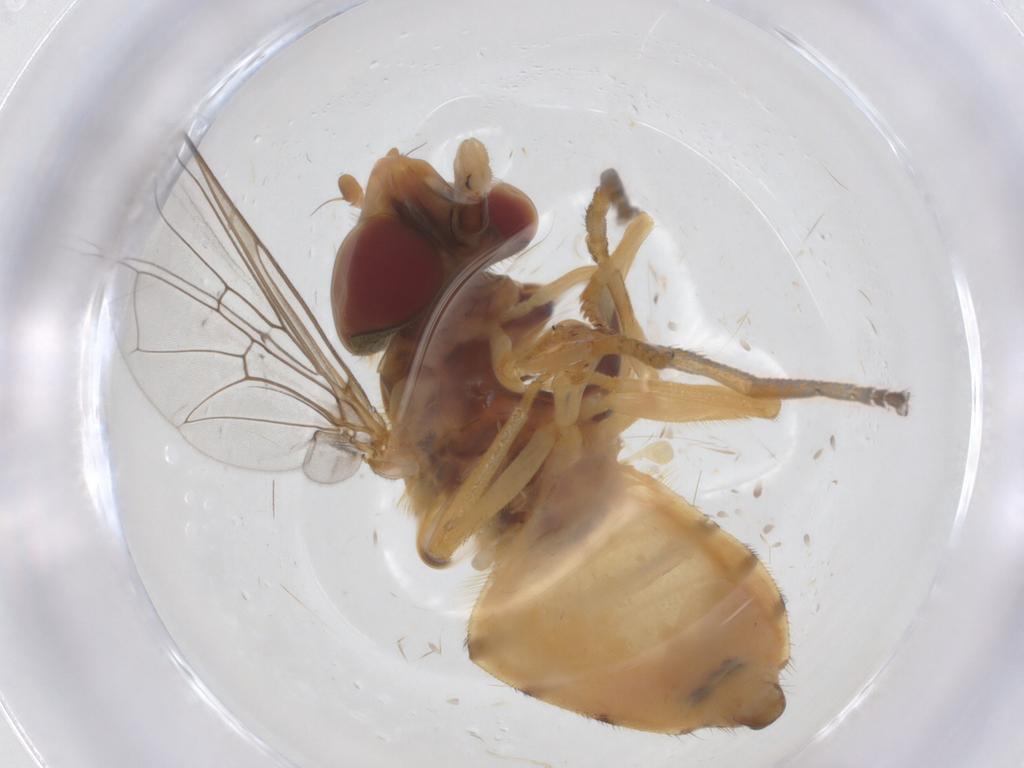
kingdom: Animalia
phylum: Arthropoda
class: Insecta
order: Diptera
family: Syrphidae
